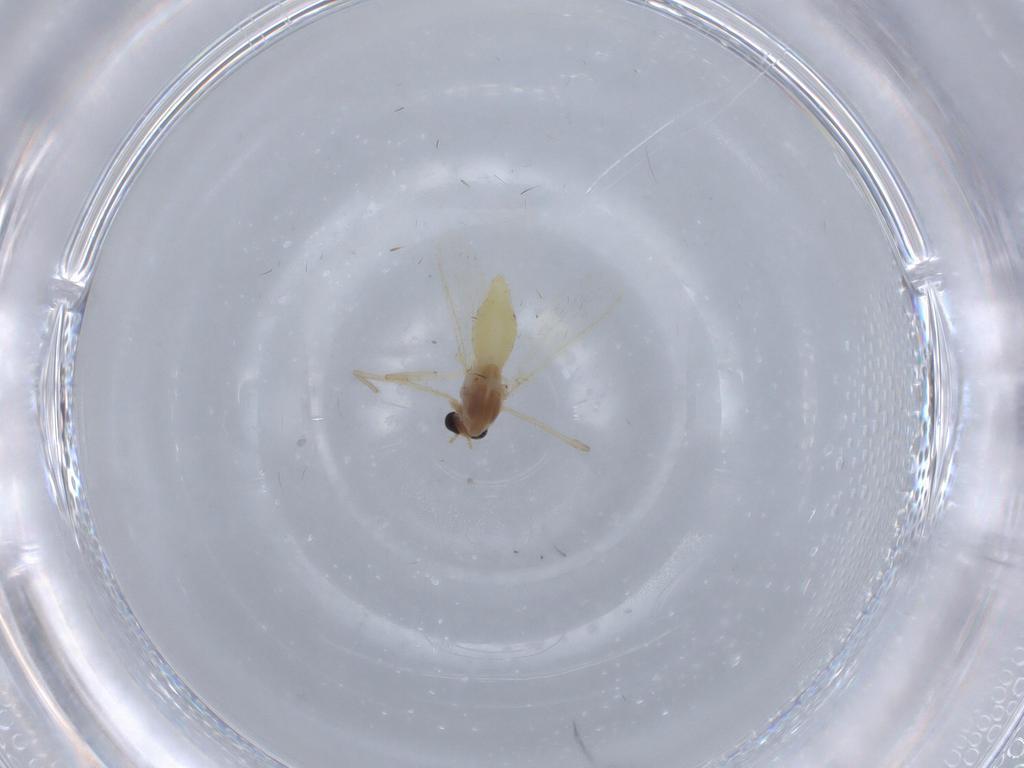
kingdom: Animalia
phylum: Arthropoda
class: Insecta
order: Diptera
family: Chironomidae
